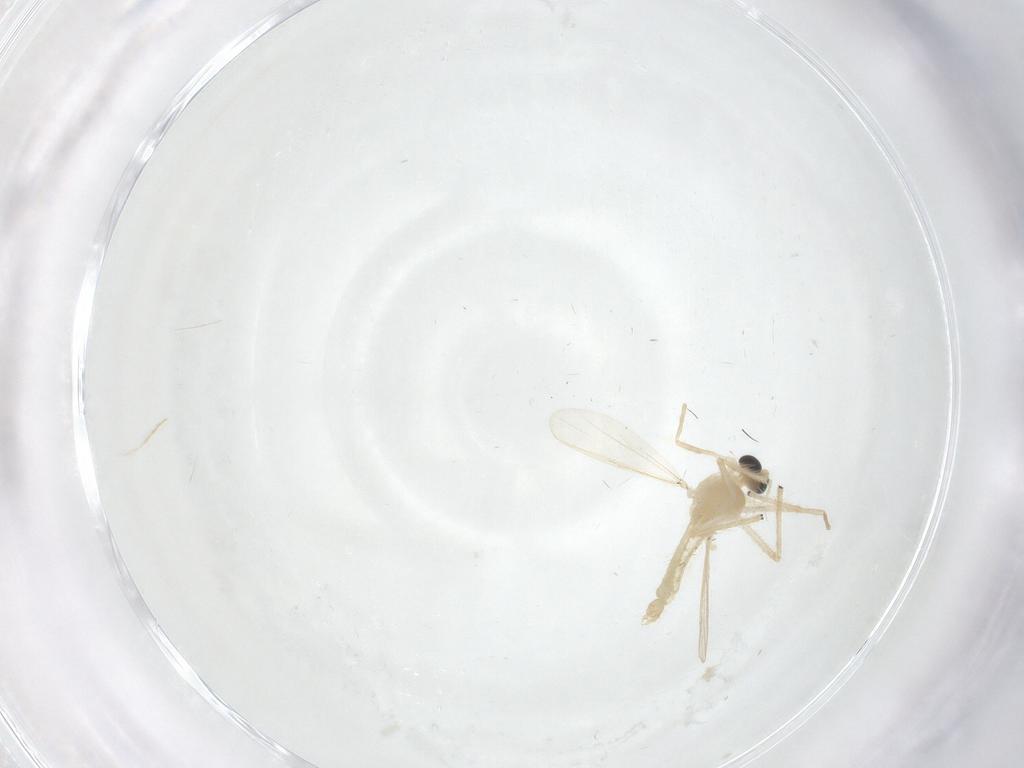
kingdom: Animalia
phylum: Arthropoda
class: Insecta
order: Diptera
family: Chironomidae
